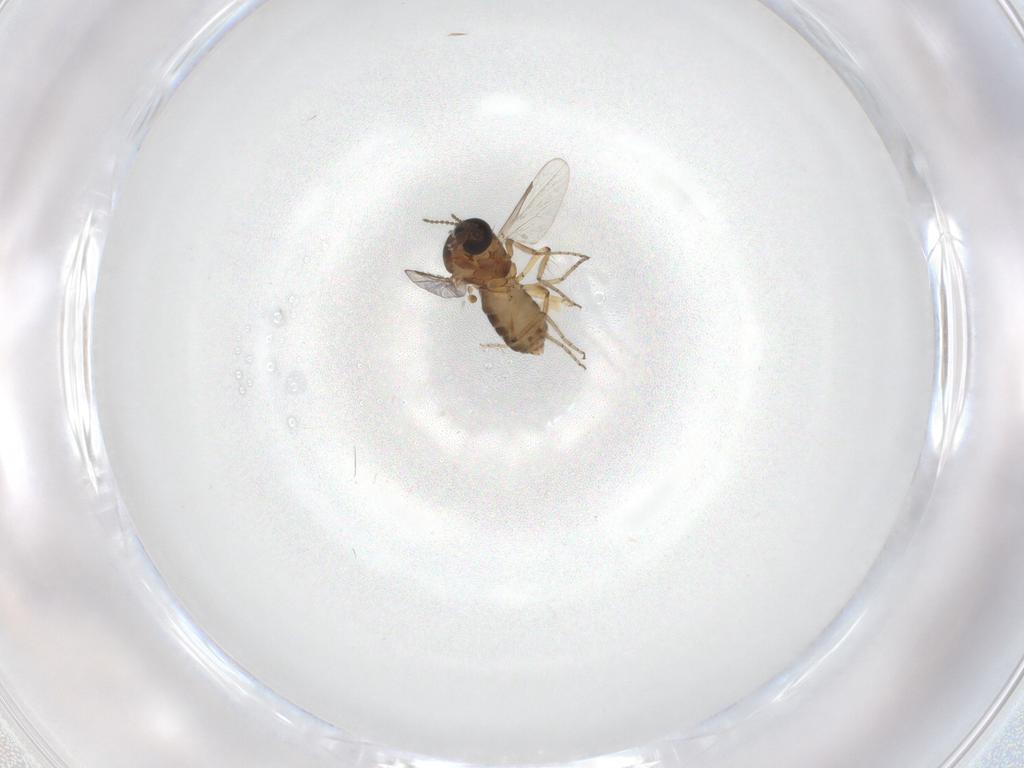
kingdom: Animalia
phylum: Arthropoda
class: Insecta
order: Diptera
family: Ceratopogonidae
